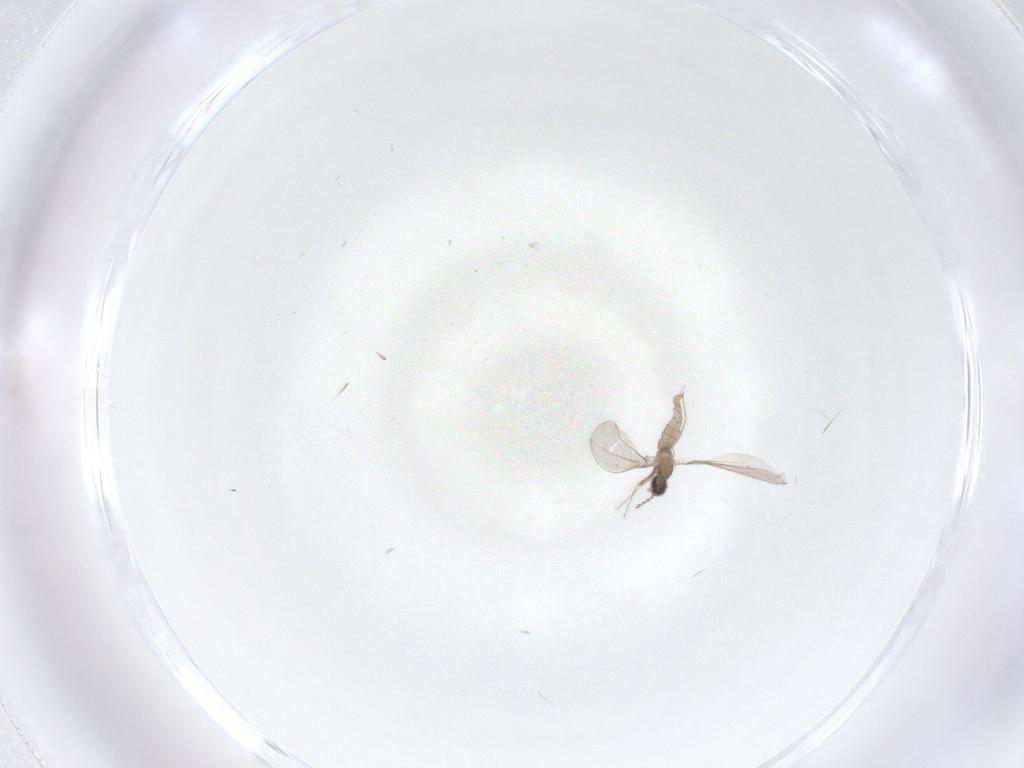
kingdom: Animalia
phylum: Arthropoda
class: Insecta
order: Diptera
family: Cecidomyiidae
